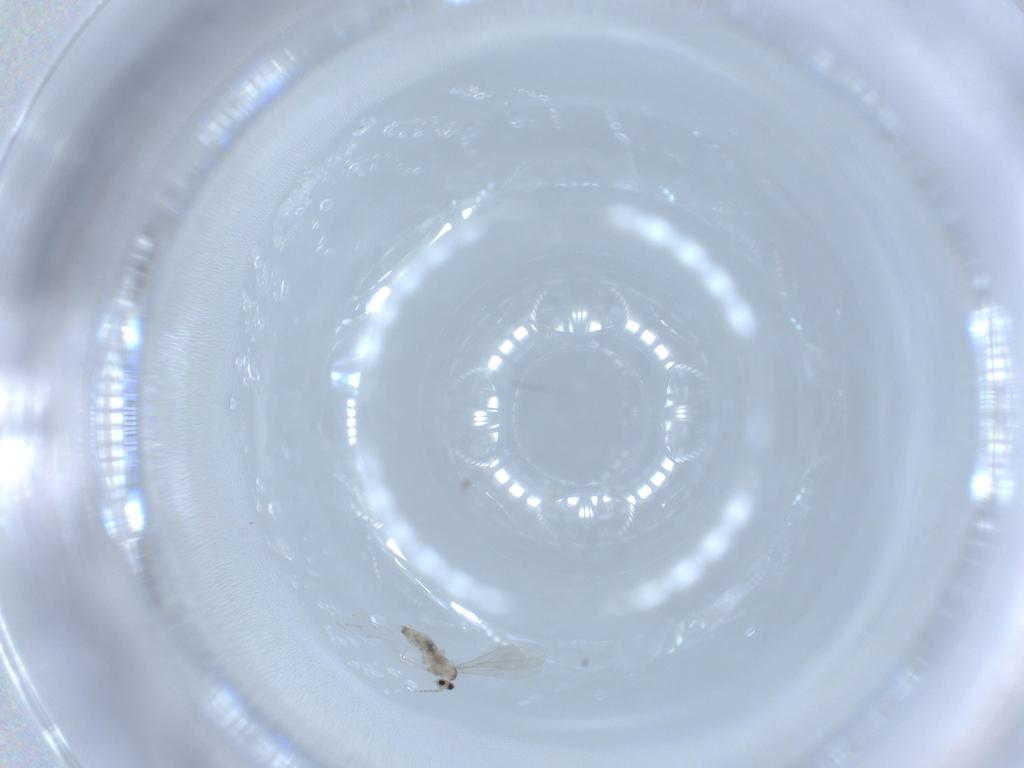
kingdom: Animalia
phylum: Arthropoda
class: Insecta
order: Diptera
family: Cecidomyiidae
